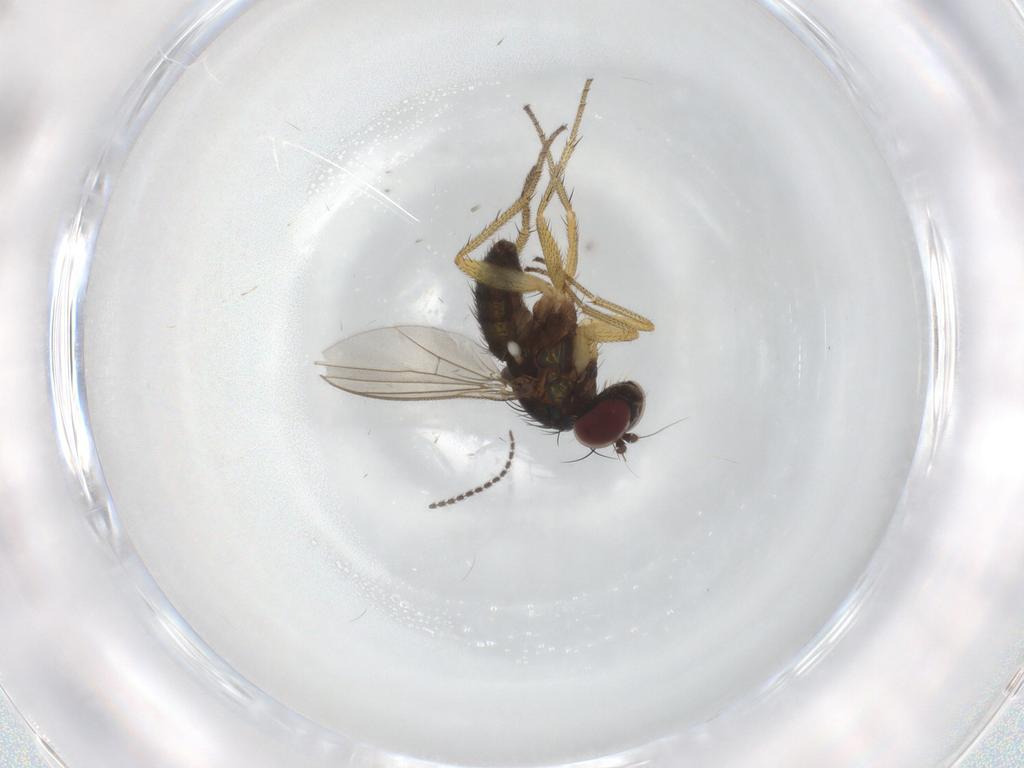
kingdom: Animalia
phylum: Arthropoda
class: Insecta
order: Diptera
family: Dolichopodidae
